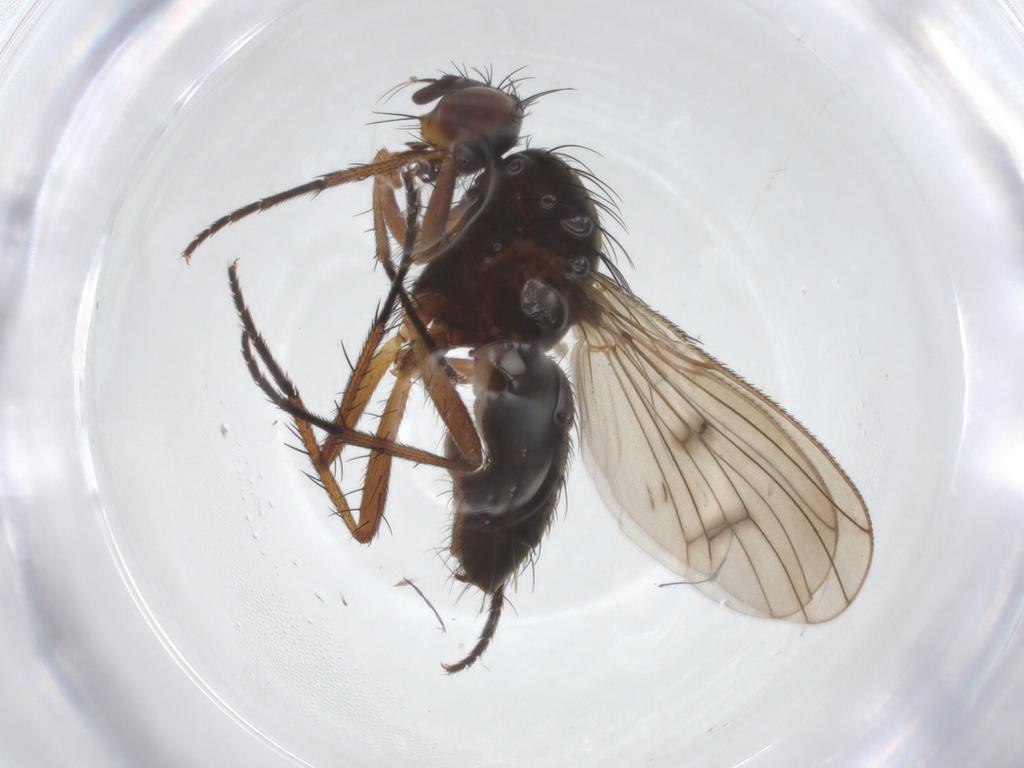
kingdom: Animalia
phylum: Arthropoda
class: Insecta
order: Diptera
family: Anthomyiidae
